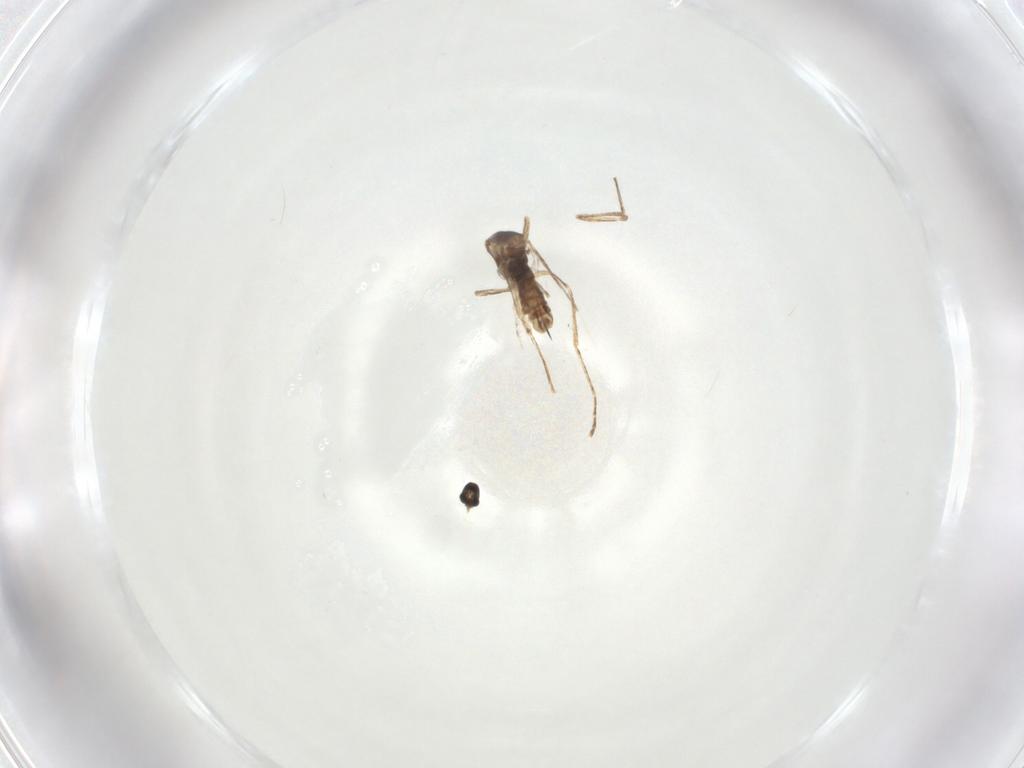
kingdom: Animalia
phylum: Arthropoda
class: Insecta
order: Diptera
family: Cecidomyiidae
